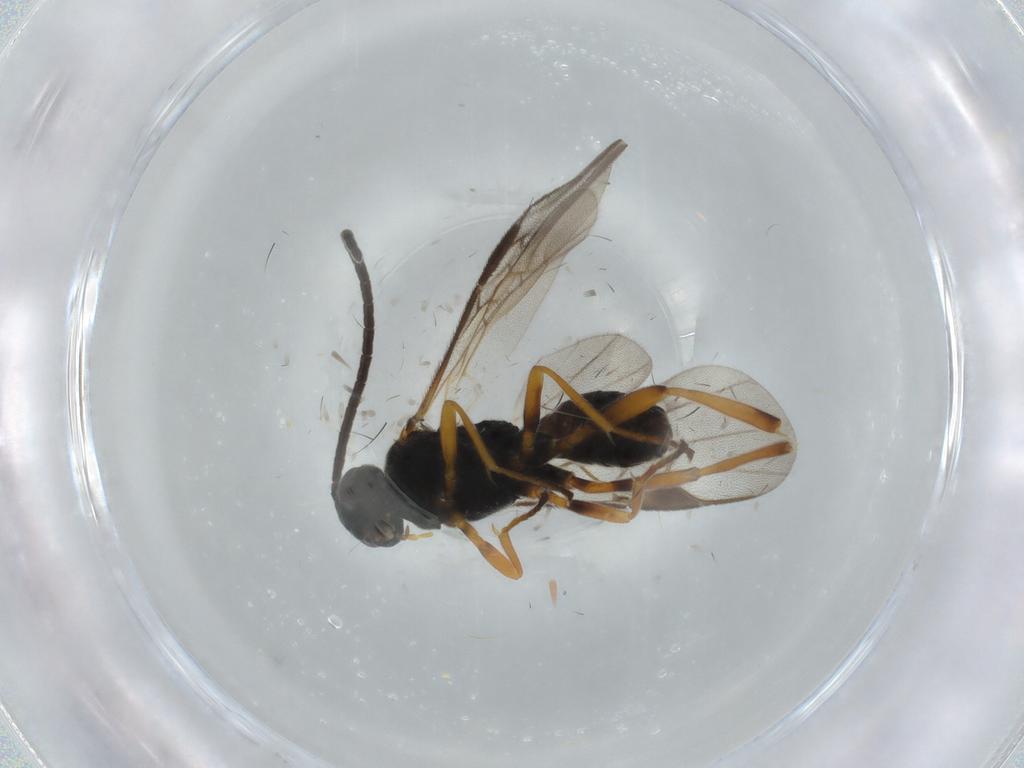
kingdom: Animalia
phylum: Arthropoda
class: Insecta
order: Hymenoptera
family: Braconidae
